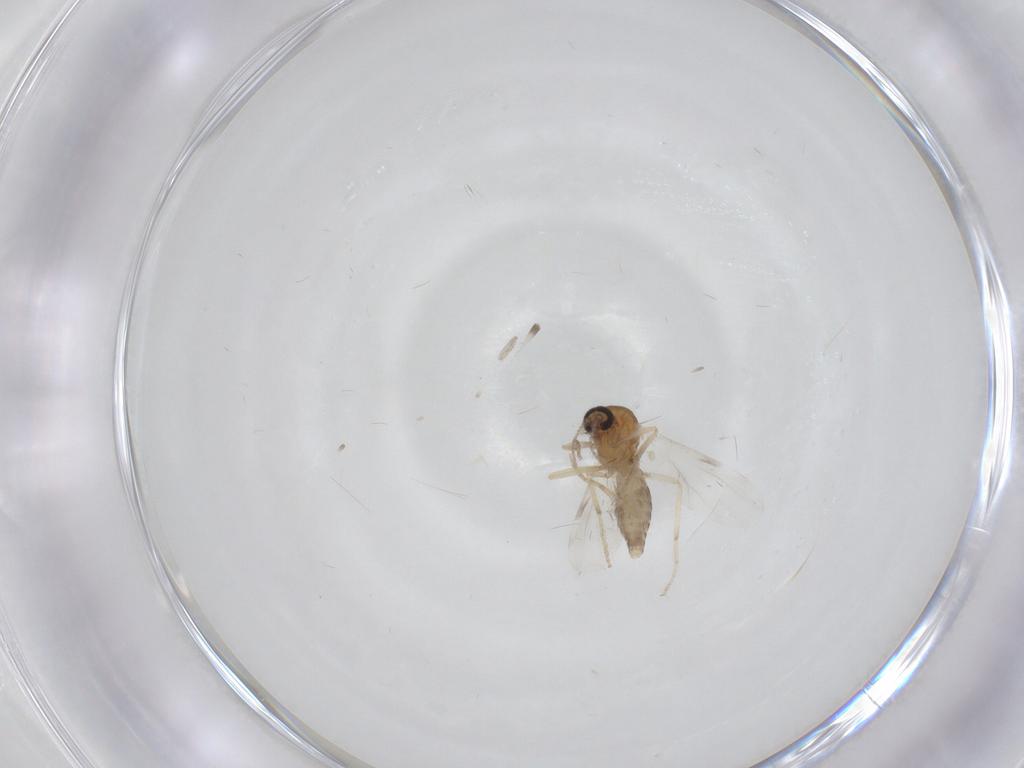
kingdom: Animalia
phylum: Arthropoda
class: Insecta
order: Diptera
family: Ceratopogonidae
